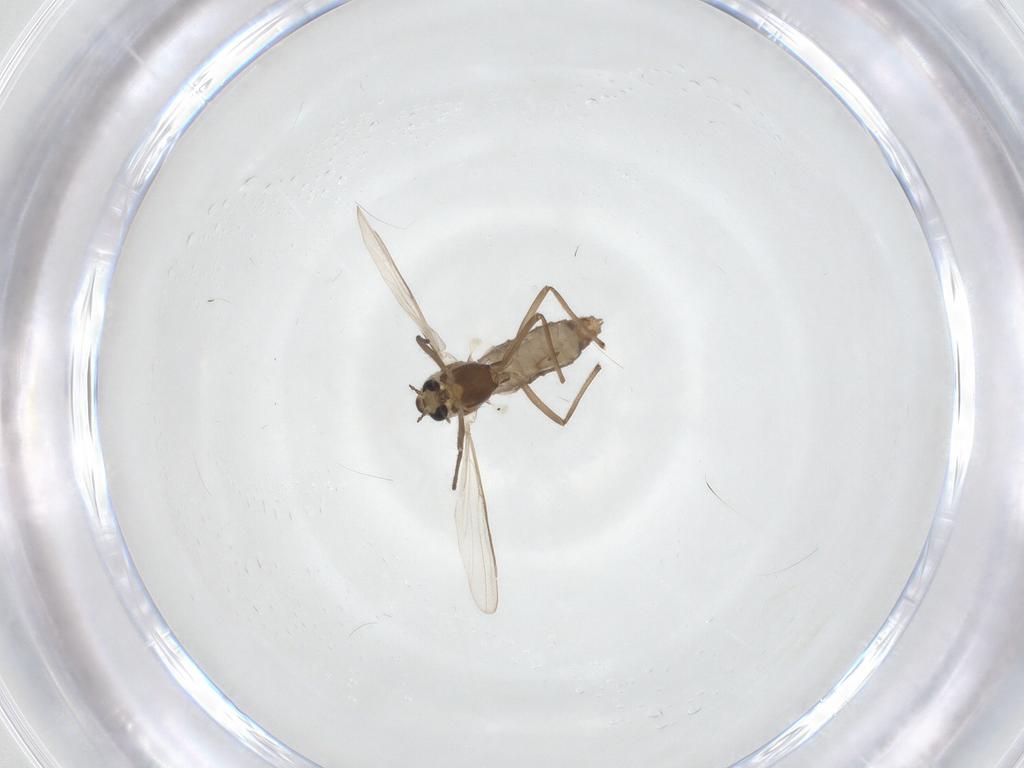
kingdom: Animalia
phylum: Arthropoda
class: Insecta
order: Diptera
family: Chironomidae
